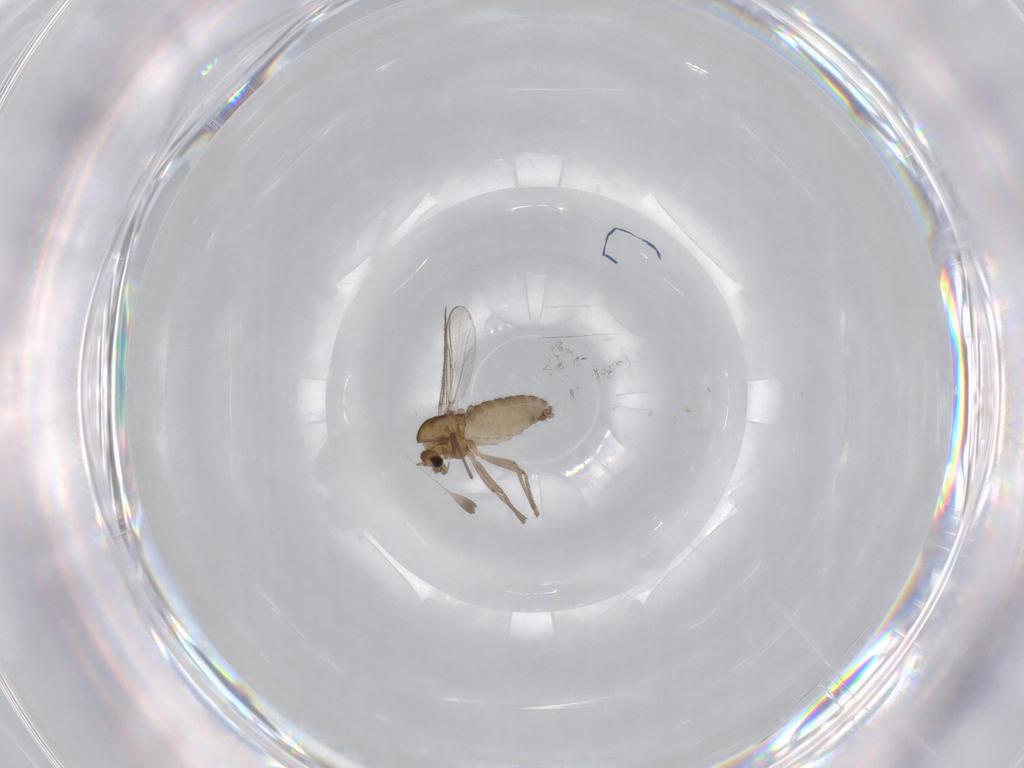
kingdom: Animalia
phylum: Arthropoda
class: Insecta
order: Diptera
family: Chironomidae
